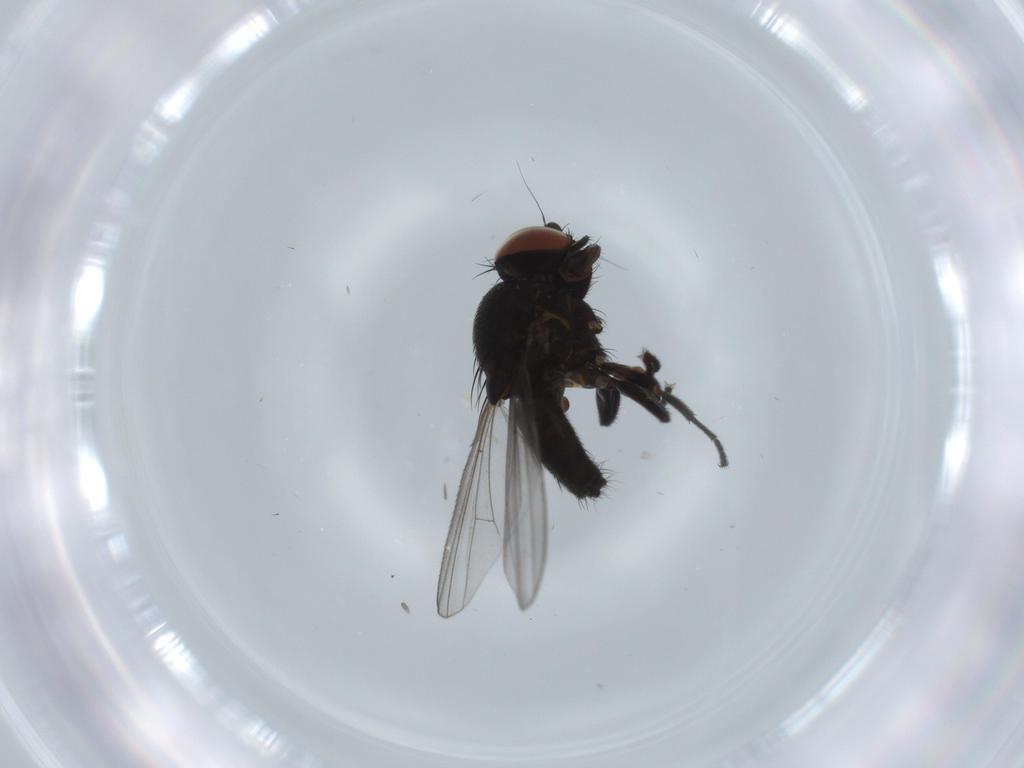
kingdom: Animalia
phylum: Arthropoda
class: Insecta
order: Diptera
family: Milichiidae
